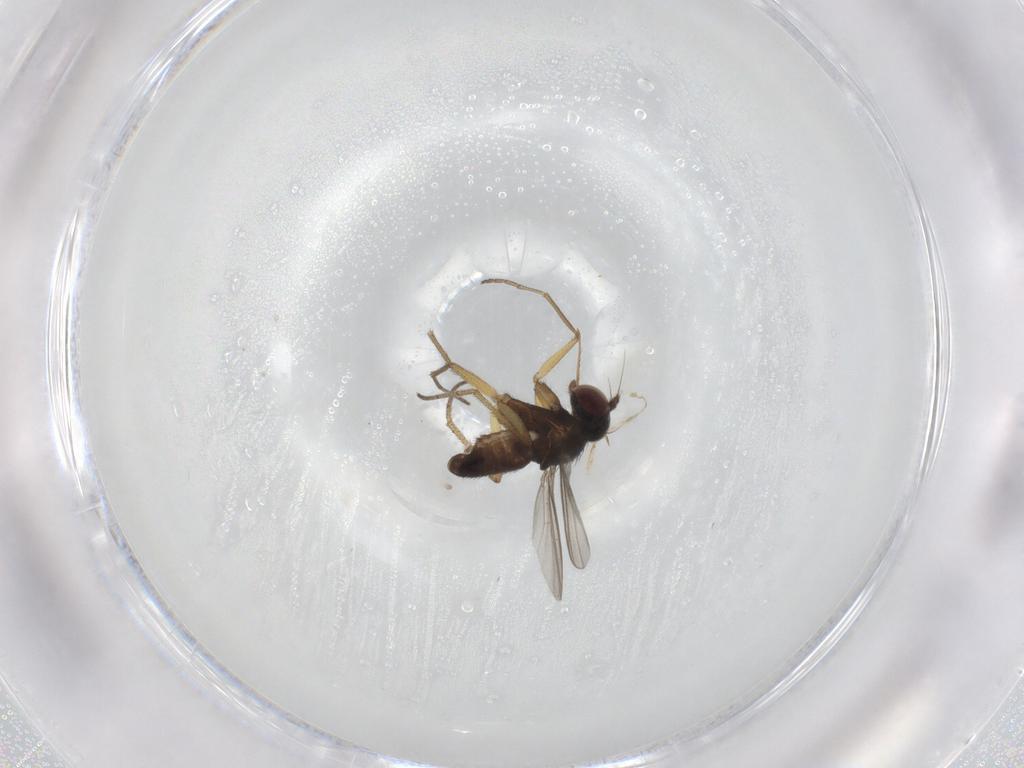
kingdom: Animalia
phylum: Arthropoda
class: Insecta
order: Diptera
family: Dolichopodidae
